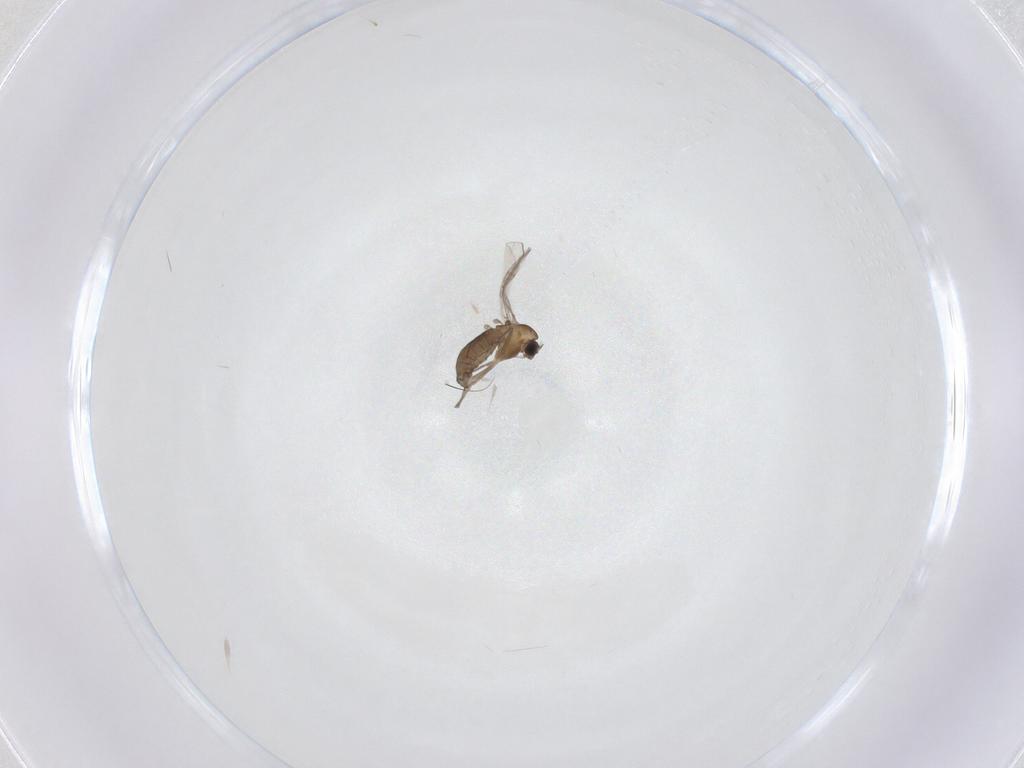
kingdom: Animalia
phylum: Arthropoda
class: Insecta
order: Diptera
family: Chironomidae
